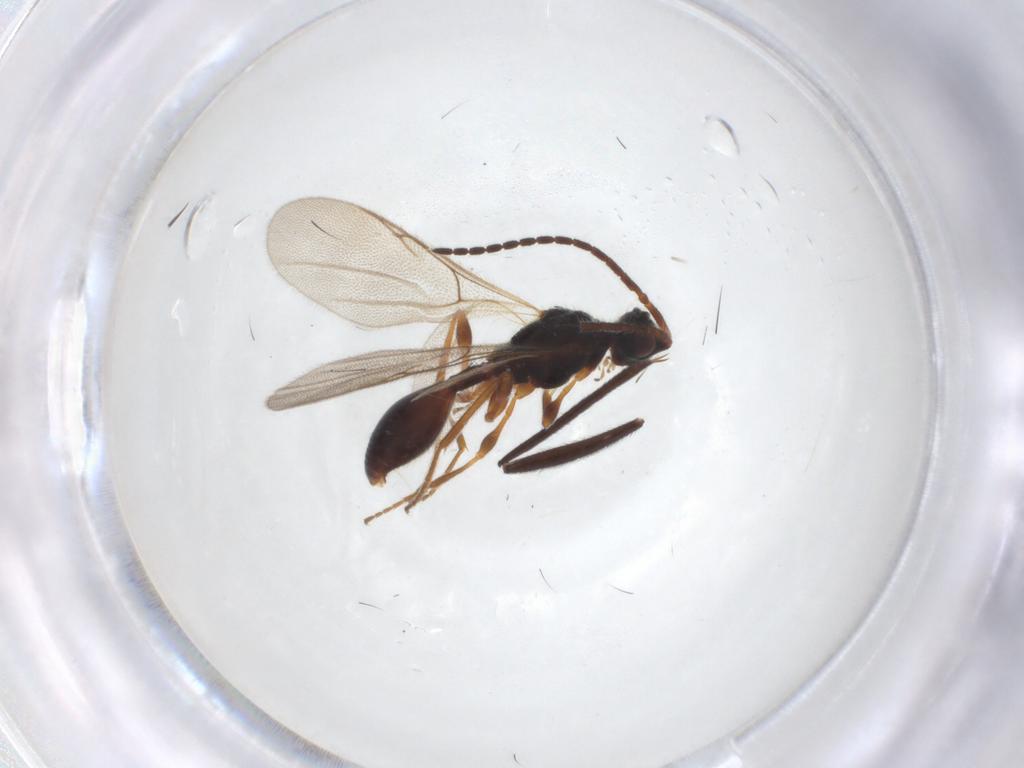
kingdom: Animalia
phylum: Arthropoda
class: Insecta
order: Hymenoptera
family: Diapriidae
